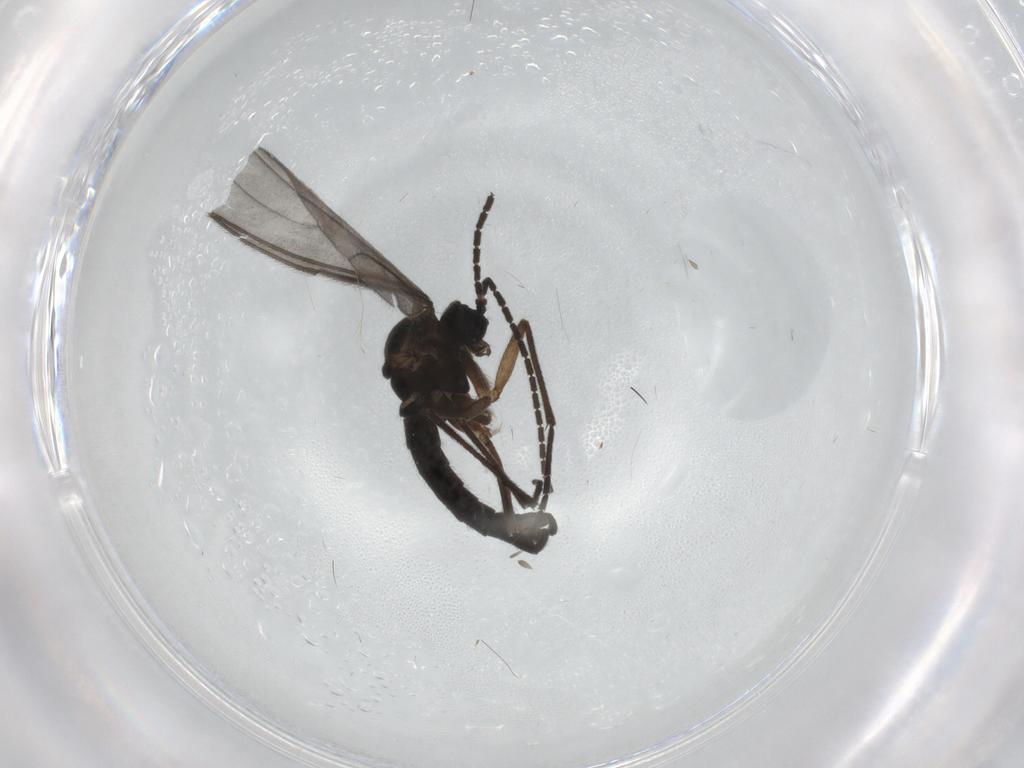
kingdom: Animalia
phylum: Arthropoda
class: Insecta
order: Diptera
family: Sciaridae
